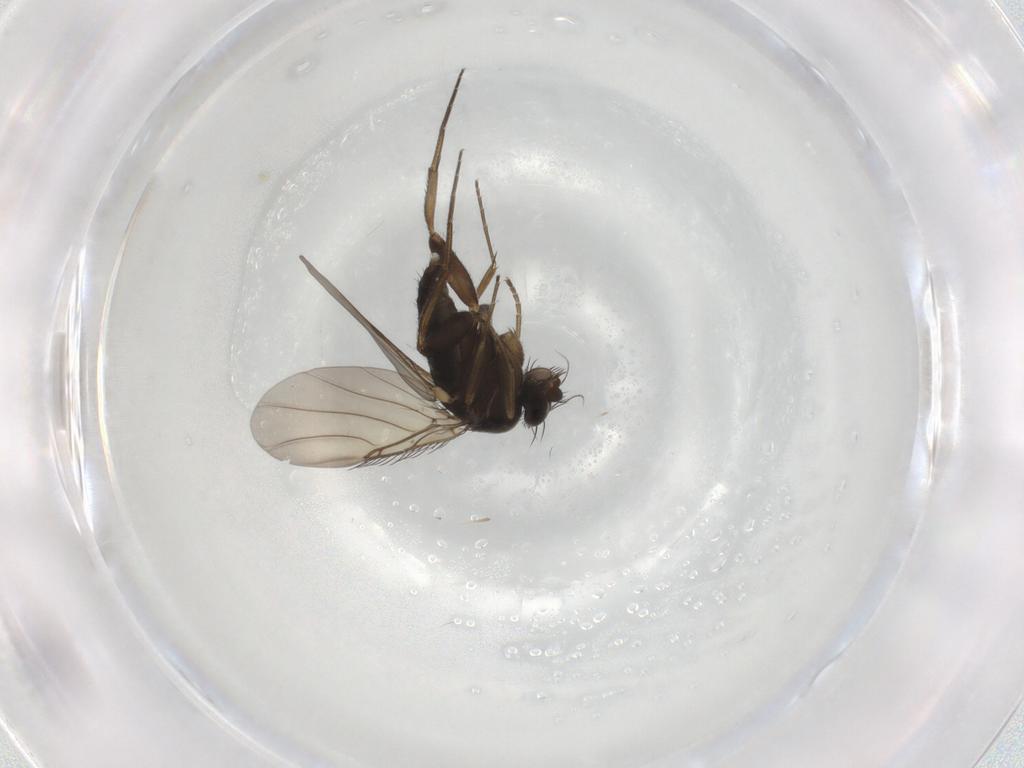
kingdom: Animalia
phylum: Arthropoda
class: Insecta
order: Diptera
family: Phoridae
